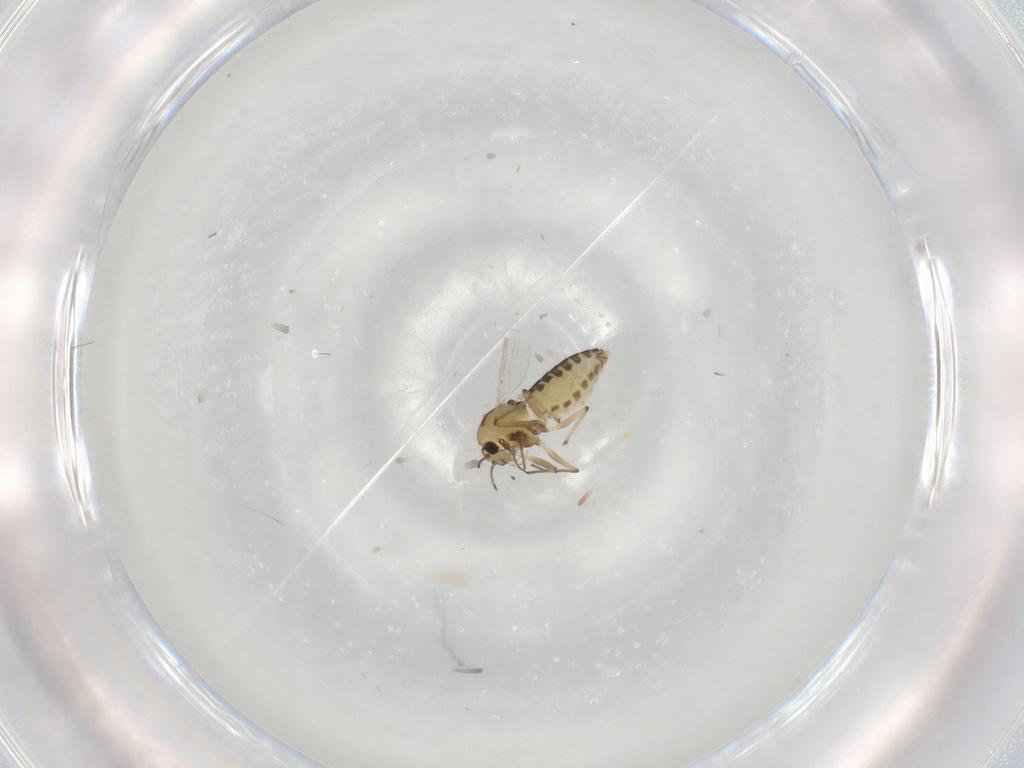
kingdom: Animalia
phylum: Arthropoda
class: Insecta
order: Diptera
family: Chironomidae
